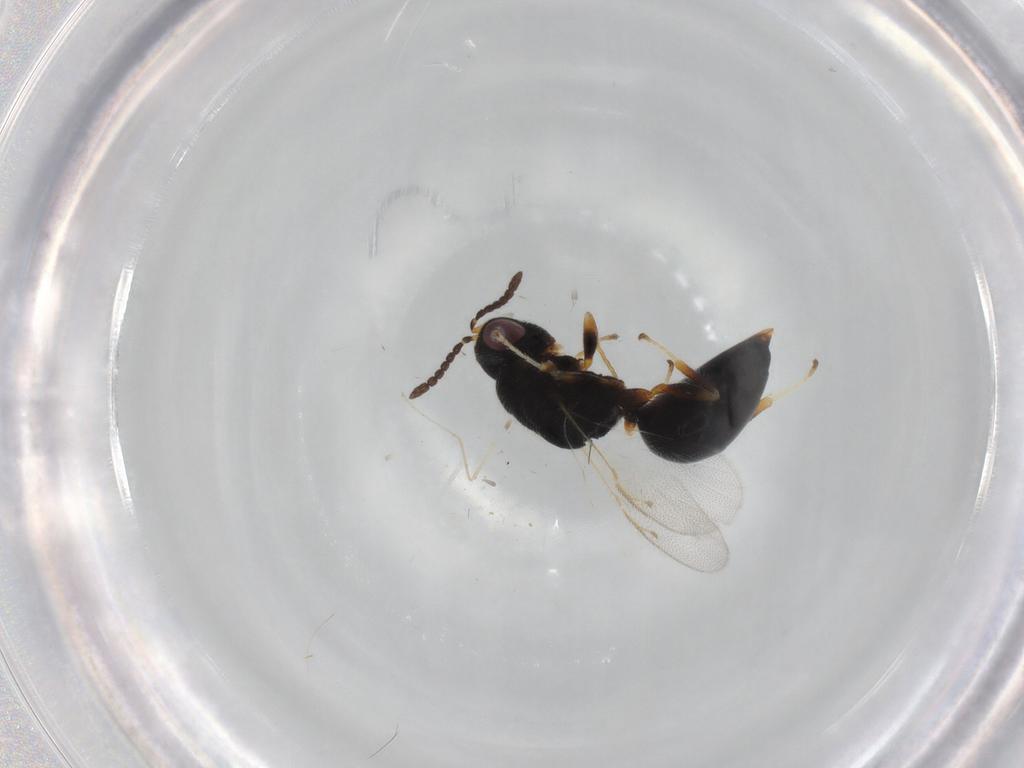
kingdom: Animalia
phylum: Arthropoda
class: Insecta
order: Hymenoptera
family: Eurytomidae
